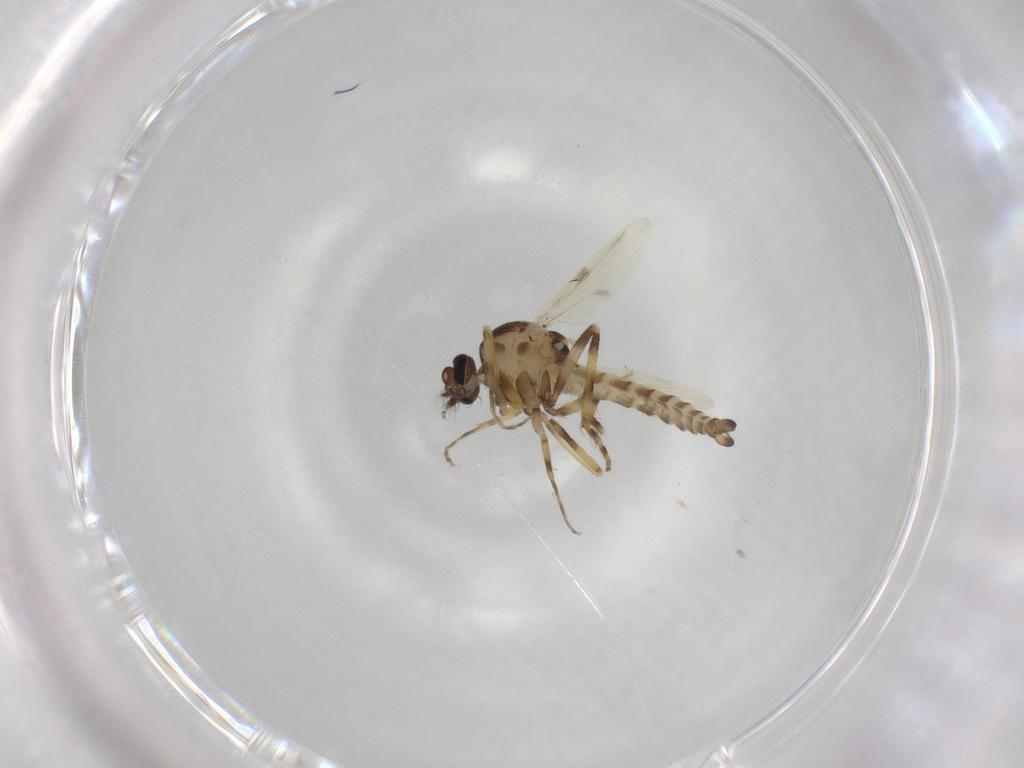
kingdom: Animalia
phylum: Arthropoda
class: Insecta
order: Diptera
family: Ceratopogonidae
